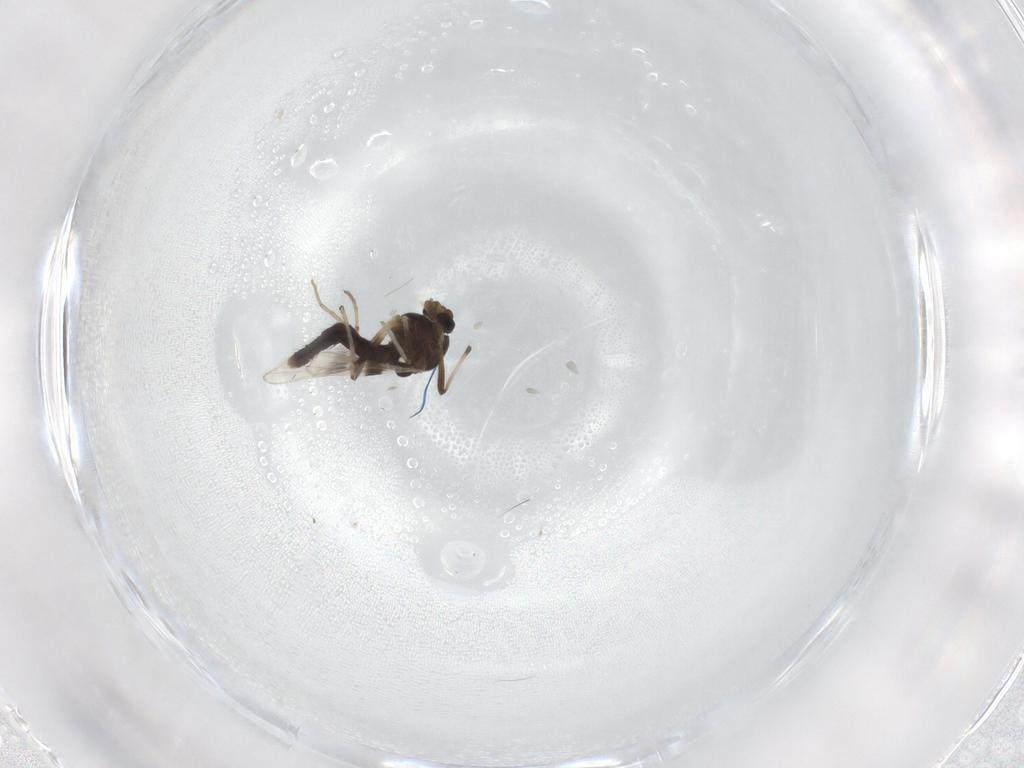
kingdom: Animalia
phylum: Arthropoda
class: Insecta
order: Diptera
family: Chironomidae
